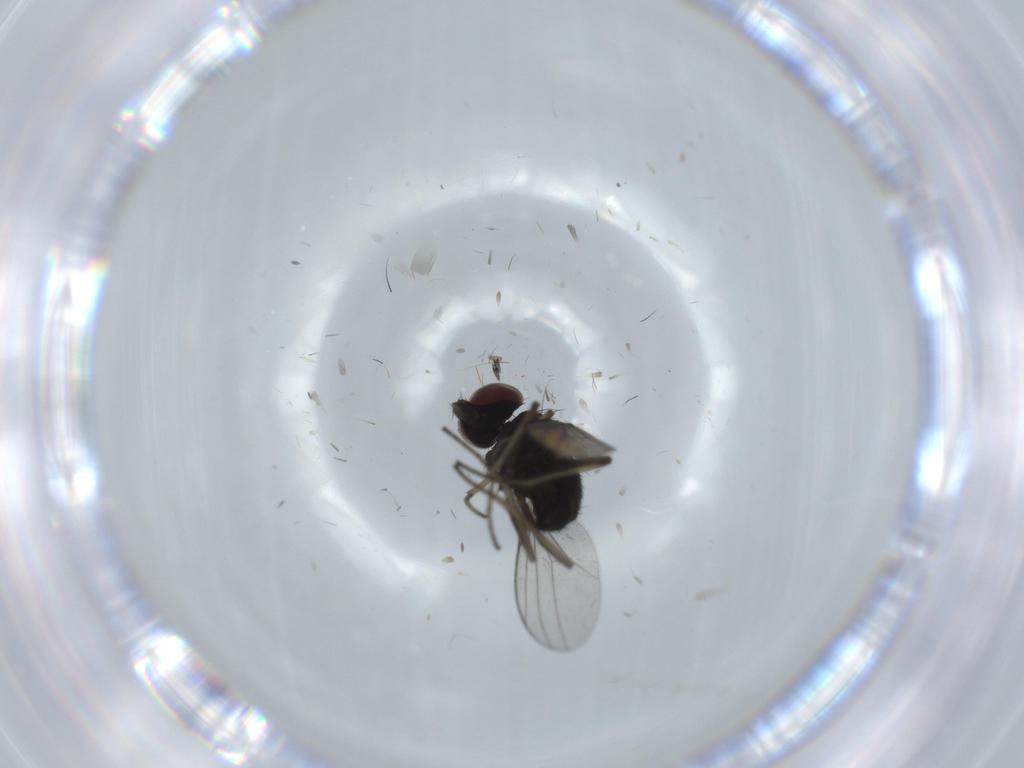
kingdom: Animalia
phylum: Arthropoda
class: Insecta
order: Diptera
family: Dolichopodidae
